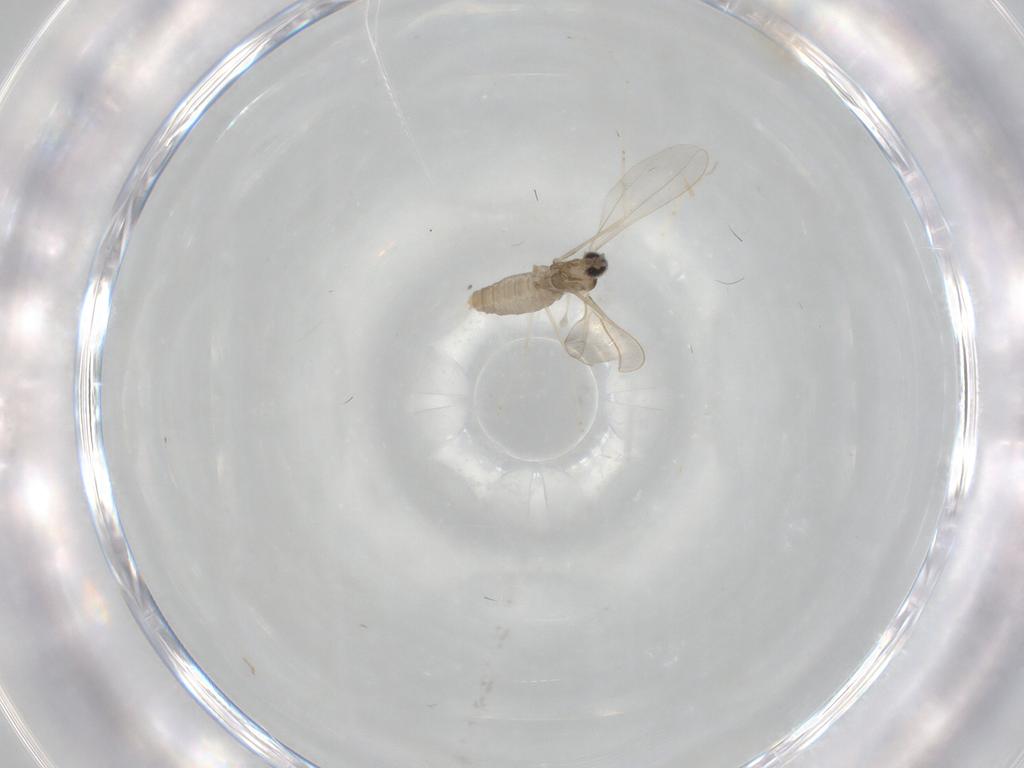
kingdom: Animalia
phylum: Arthropoda
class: Insecta
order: Diptera
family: Cecidomyiidae
